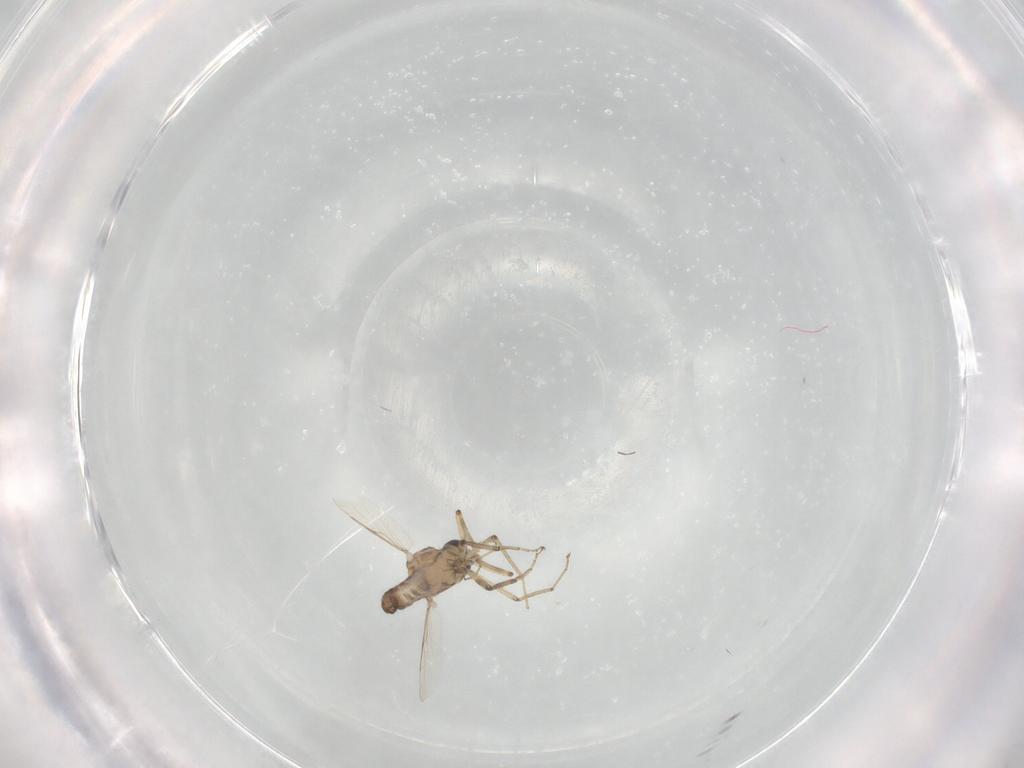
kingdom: Animalia
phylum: Arthropoda
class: Insecta
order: Diptera
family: Ceratopogonidae
